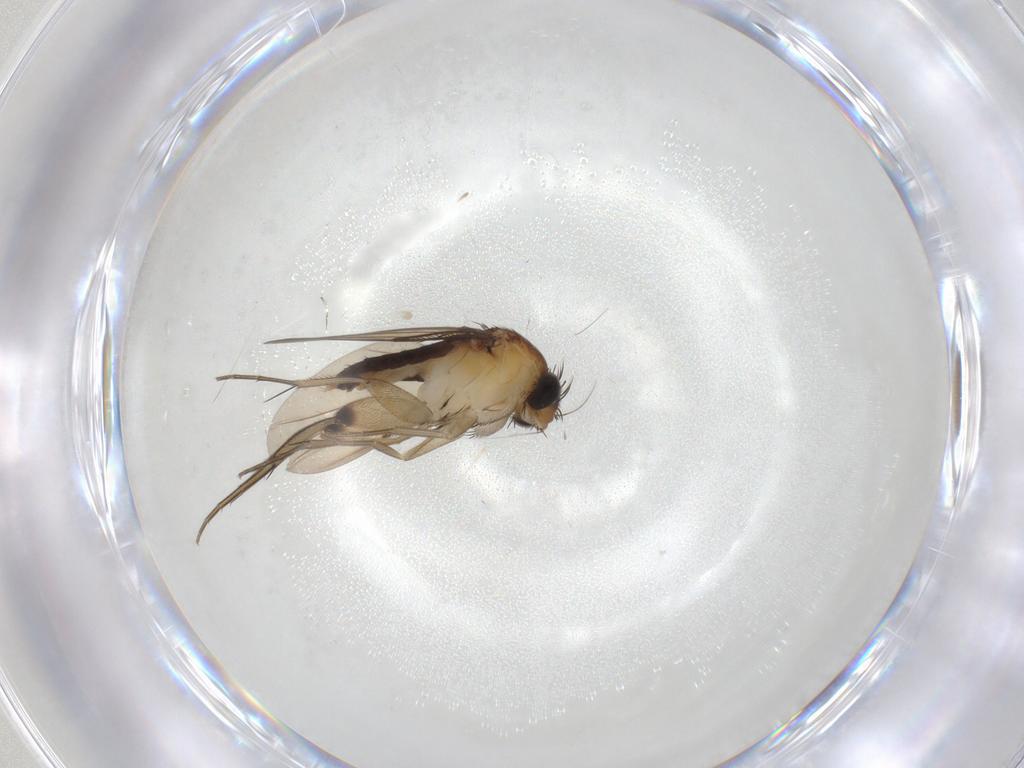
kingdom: Animalia
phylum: Arthropoda
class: Insecta
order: Diptera
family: Phoridae
